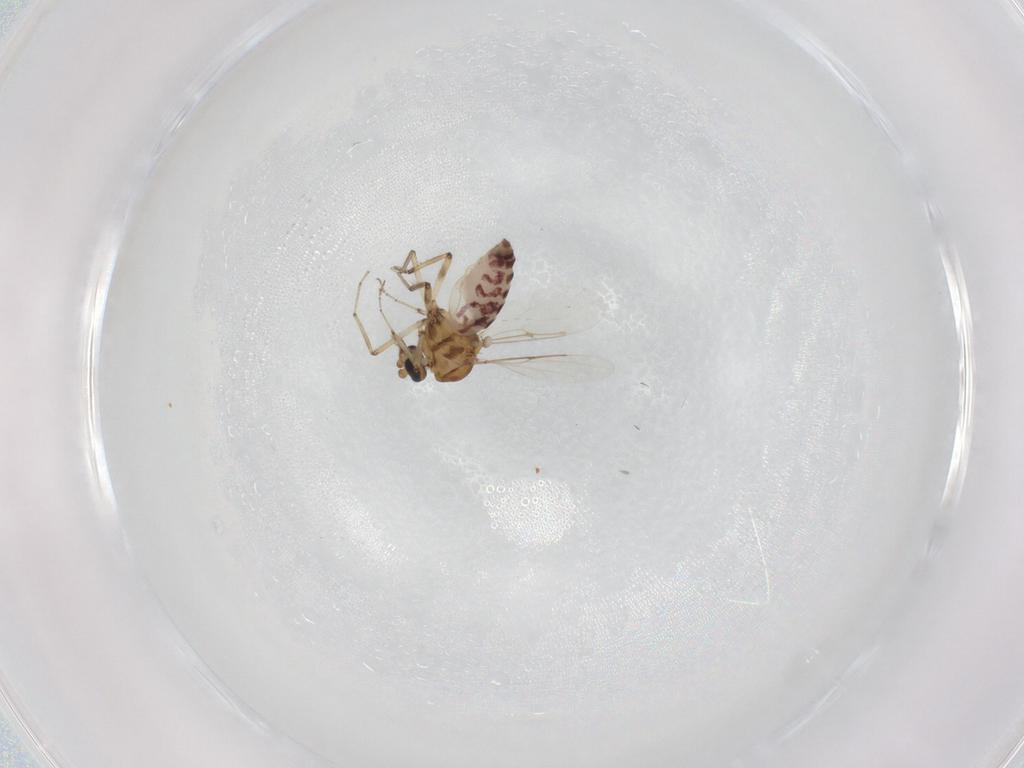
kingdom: Animalia
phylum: Arthropoda
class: Insecta
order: Diptera
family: Ceratopogonidae
